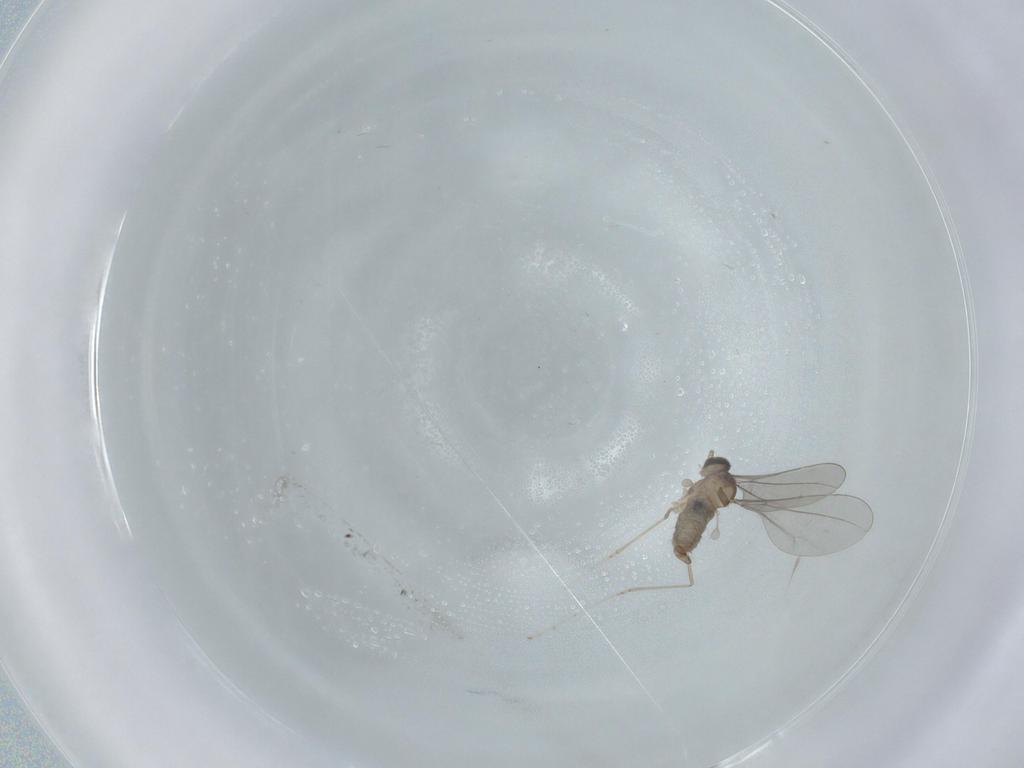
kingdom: Animalia
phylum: Arthropoda
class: Insecta
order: Diptera
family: Cecidomyiidae
